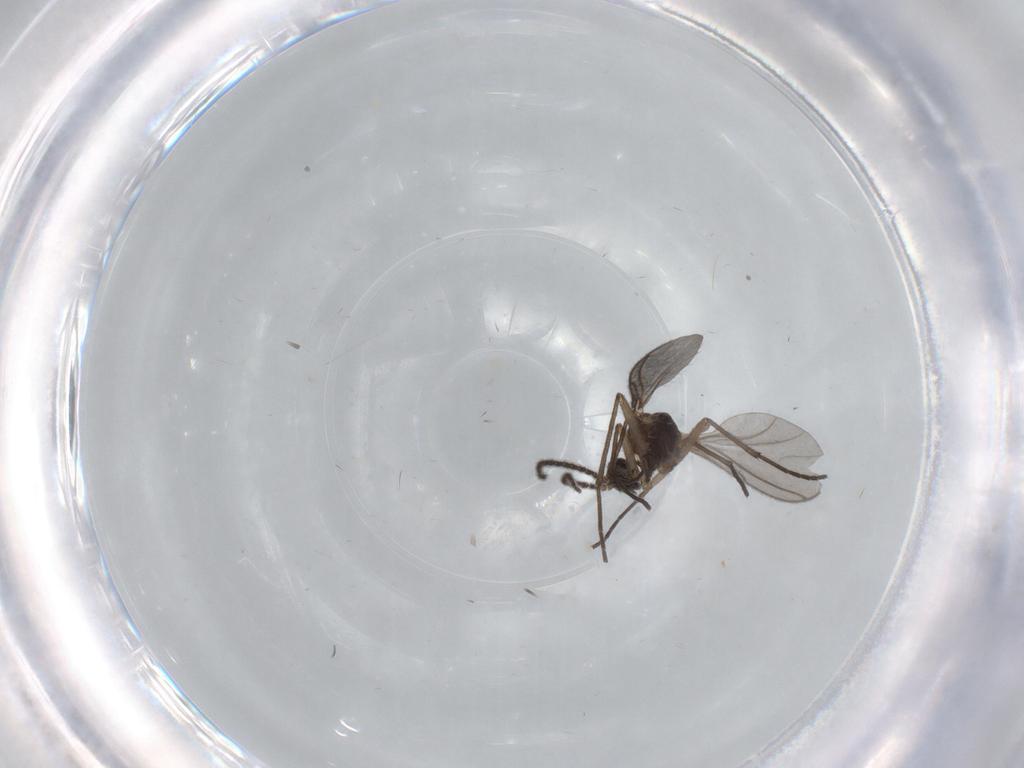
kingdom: Animalia
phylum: Arthropoda
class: Insecta
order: Diptera
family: Sciaridae
